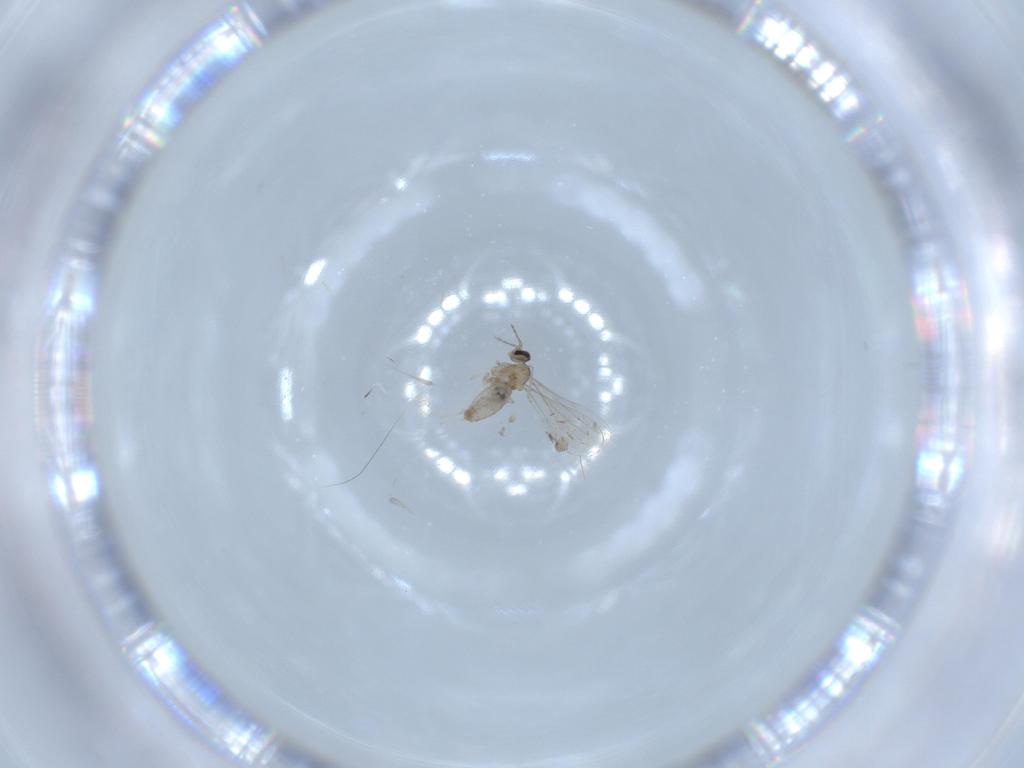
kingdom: Animalia
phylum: Arthropoda
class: Insecta
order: Diptera
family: Cecidomyiidae
